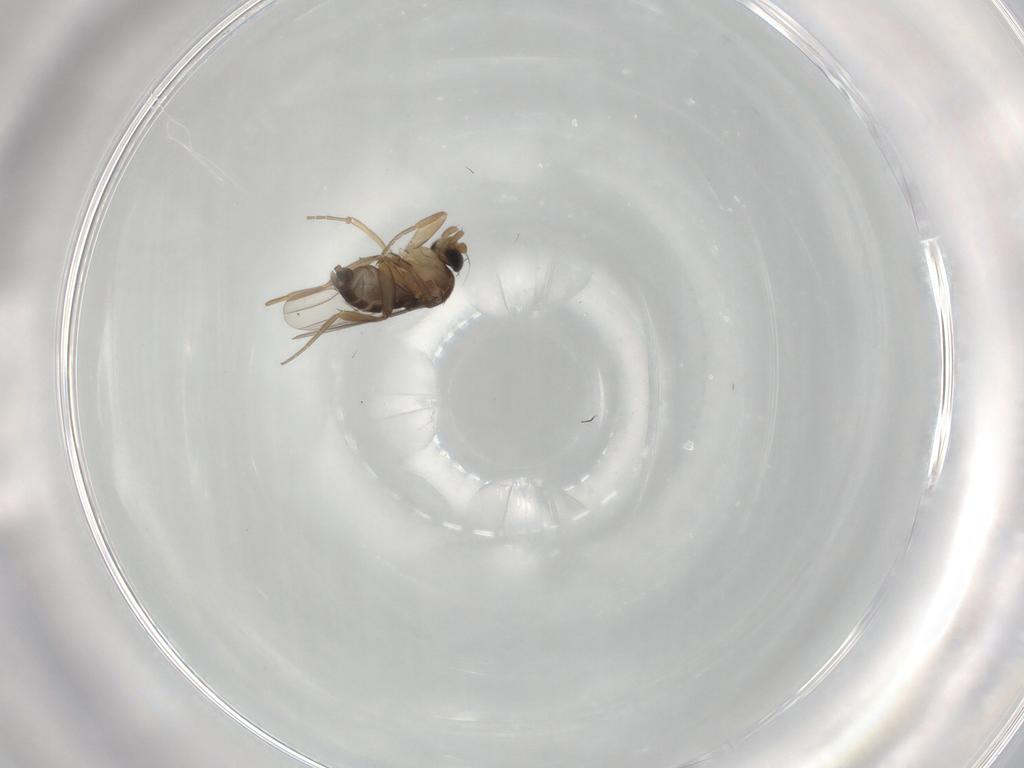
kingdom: Animalia
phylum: Arthropoda
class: Insecta
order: Diptera
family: Phoridae
